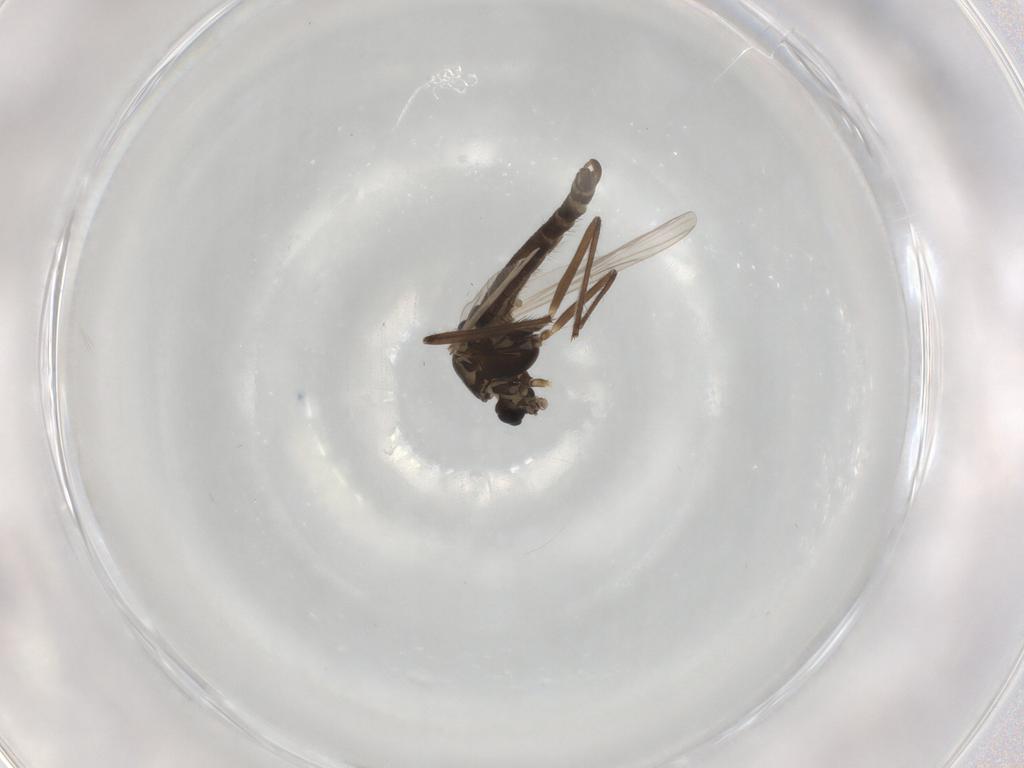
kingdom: Animalia
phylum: Arthropoda
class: Insecta
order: Diptera
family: Chironomidae
